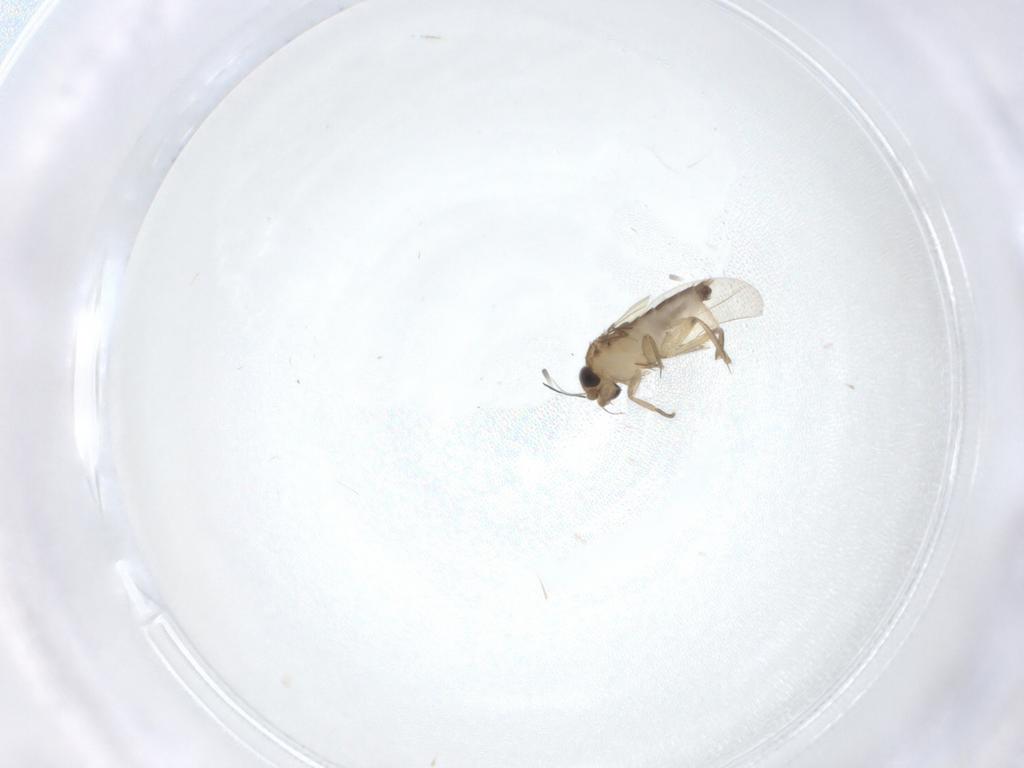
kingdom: Animalia
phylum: Arthropoda
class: Insecta
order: Diptera
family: Phoridae
